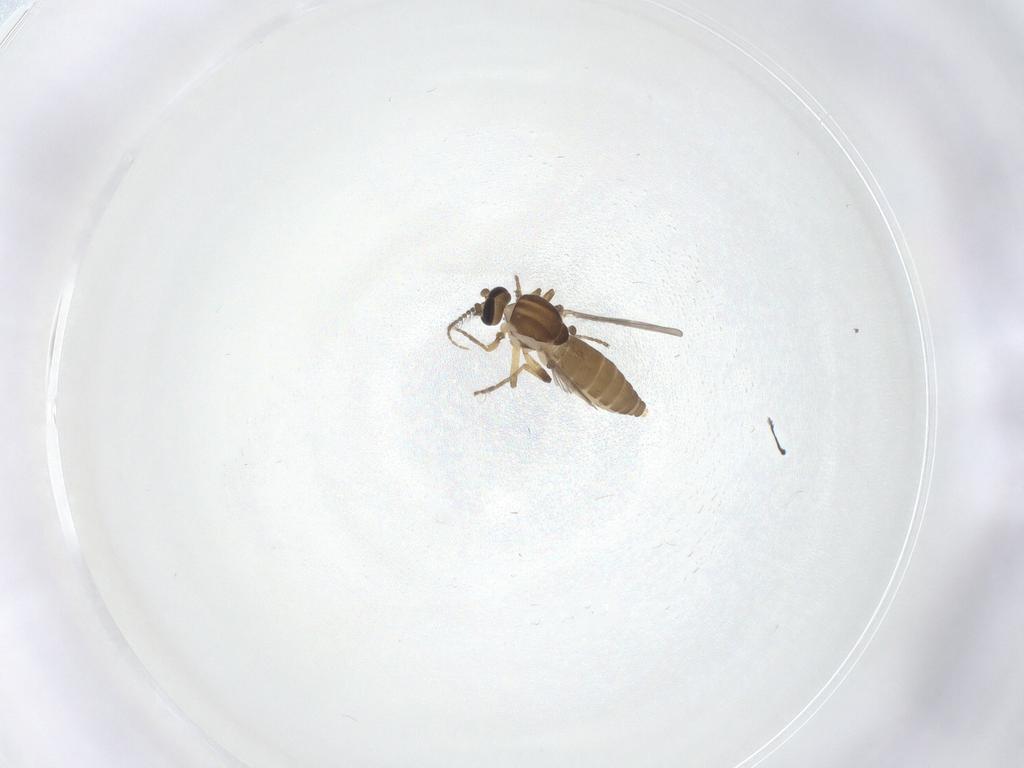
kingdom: Animalia
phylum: Arthropoda
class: Insecta
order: Diptera
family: Ceratopogonidae
